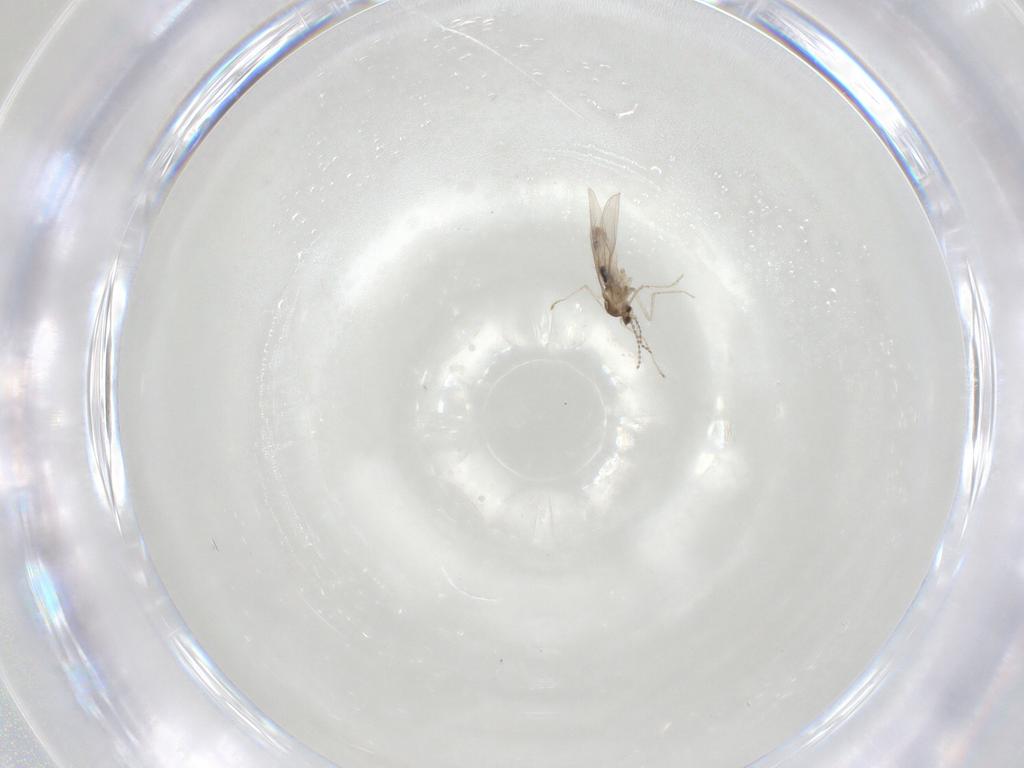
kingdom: Animalia
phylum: Arthropoda
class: Insecta
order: Diptera
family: Cecidomyiidae
